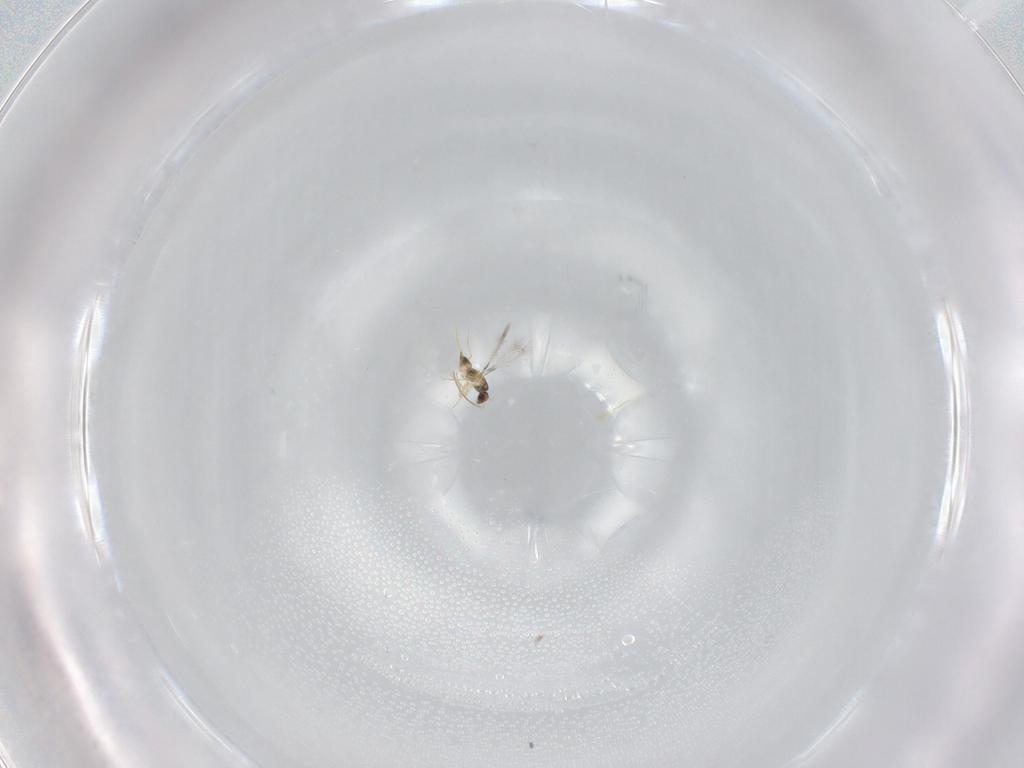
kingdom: Animalia
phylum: Arthropoda
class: Insecta
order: Hymenoptera
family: Mymaridae
